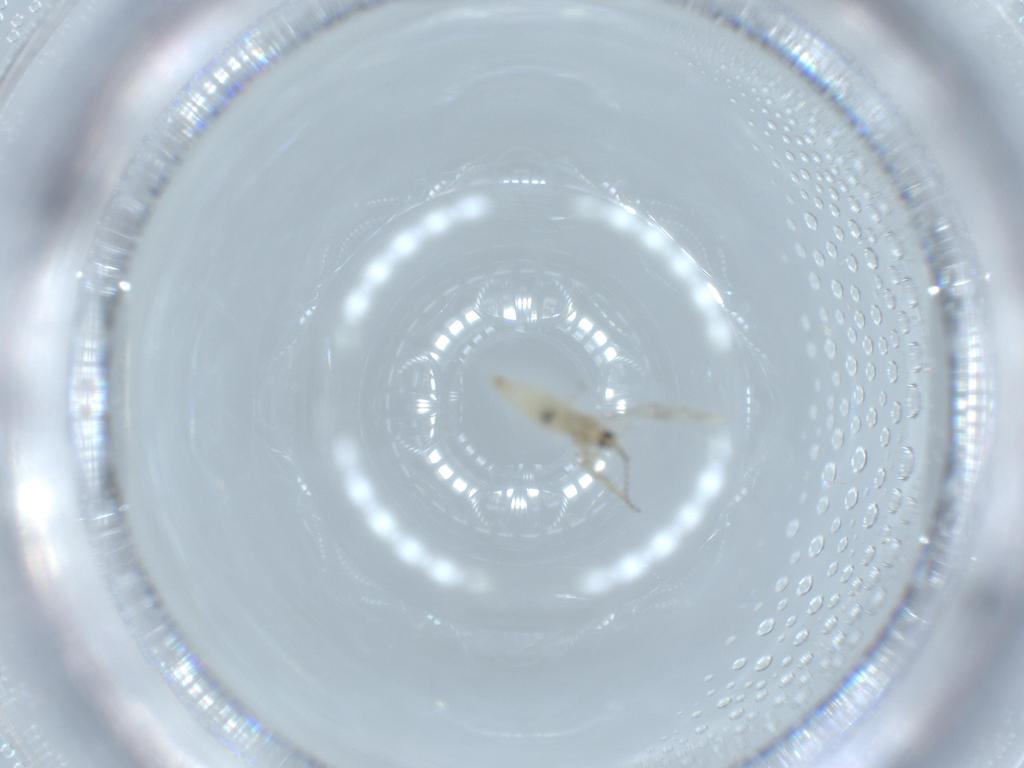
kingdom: Animalia
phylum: Arthropoda
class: Insecta
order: Diptera
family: Cecidomyiidae
